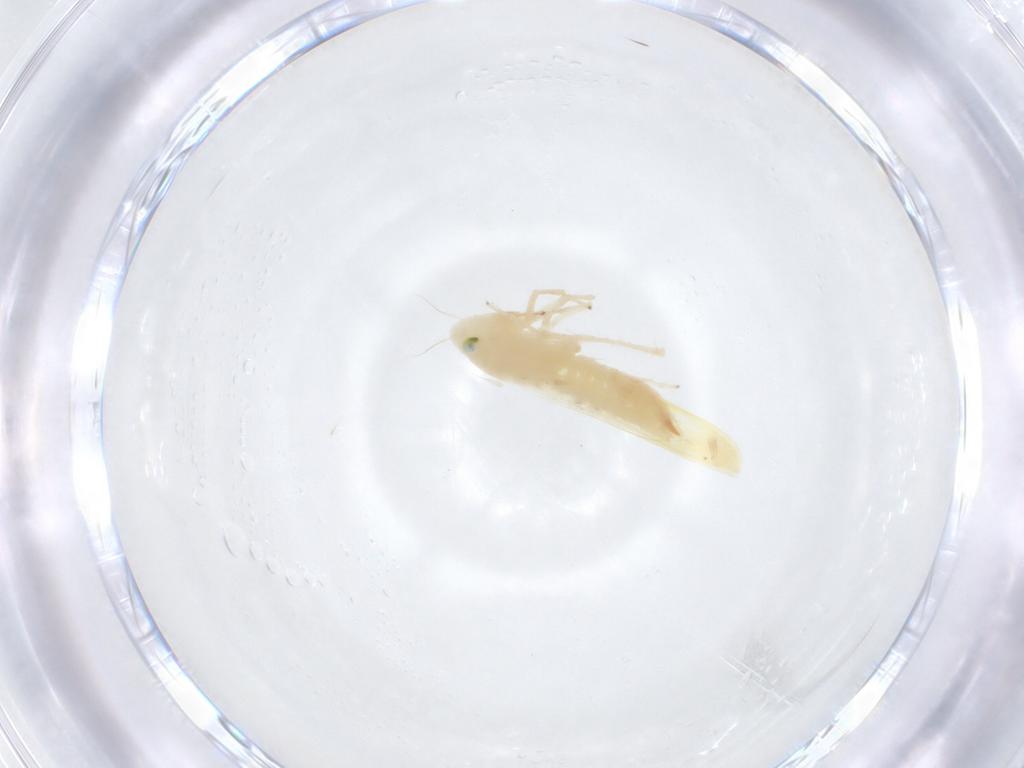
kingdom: Animalia
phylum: Arthropoda
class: Insecta
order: Hemiptera
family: Cicadellidae
